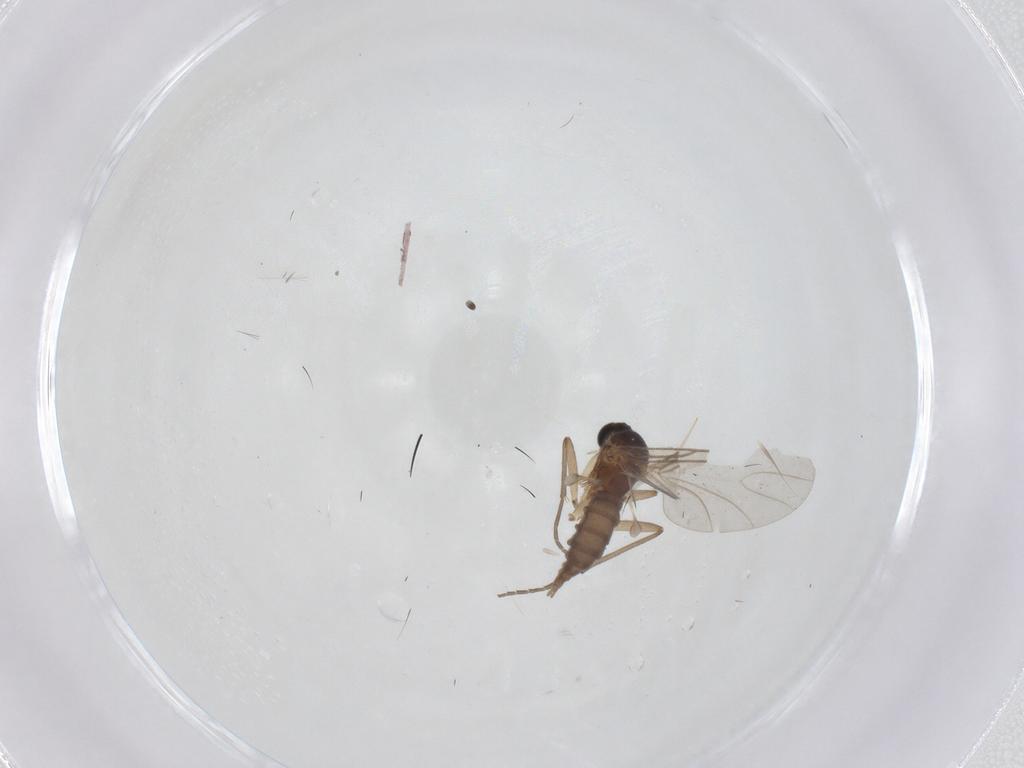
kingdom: Animalia
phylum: Arthropoda
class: Insecta
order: Diptera
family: Sciaridae
